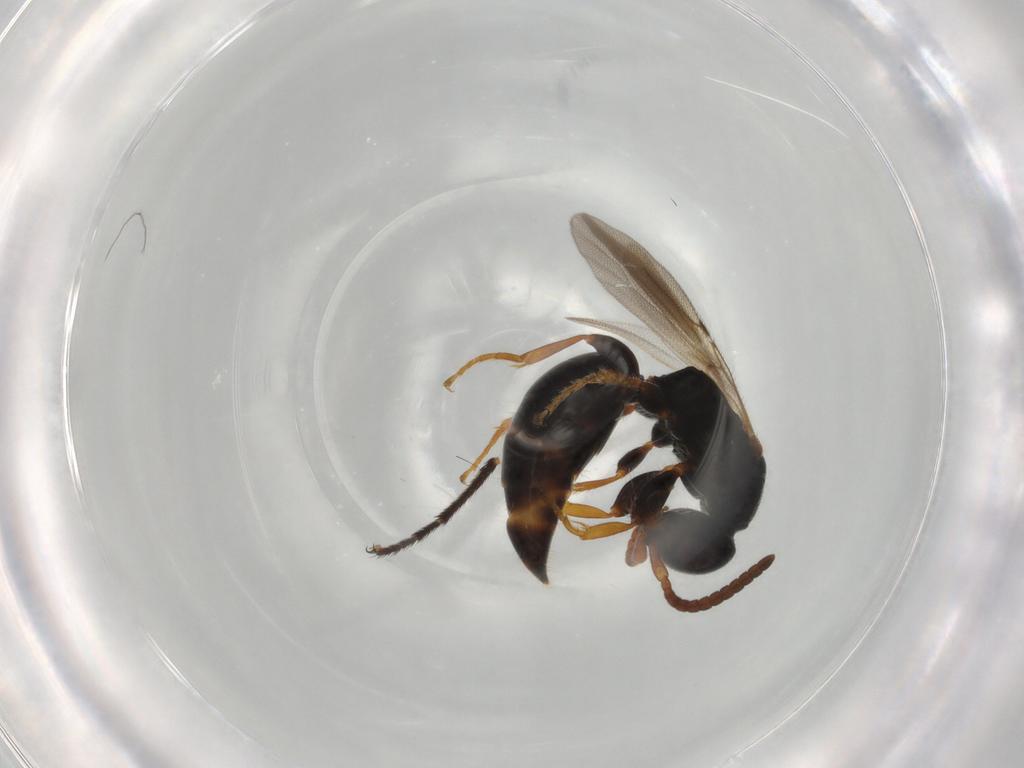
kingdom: Animalia
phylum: Arthropoda
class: Insecta
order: Hymenoptera
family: Bethylidae
